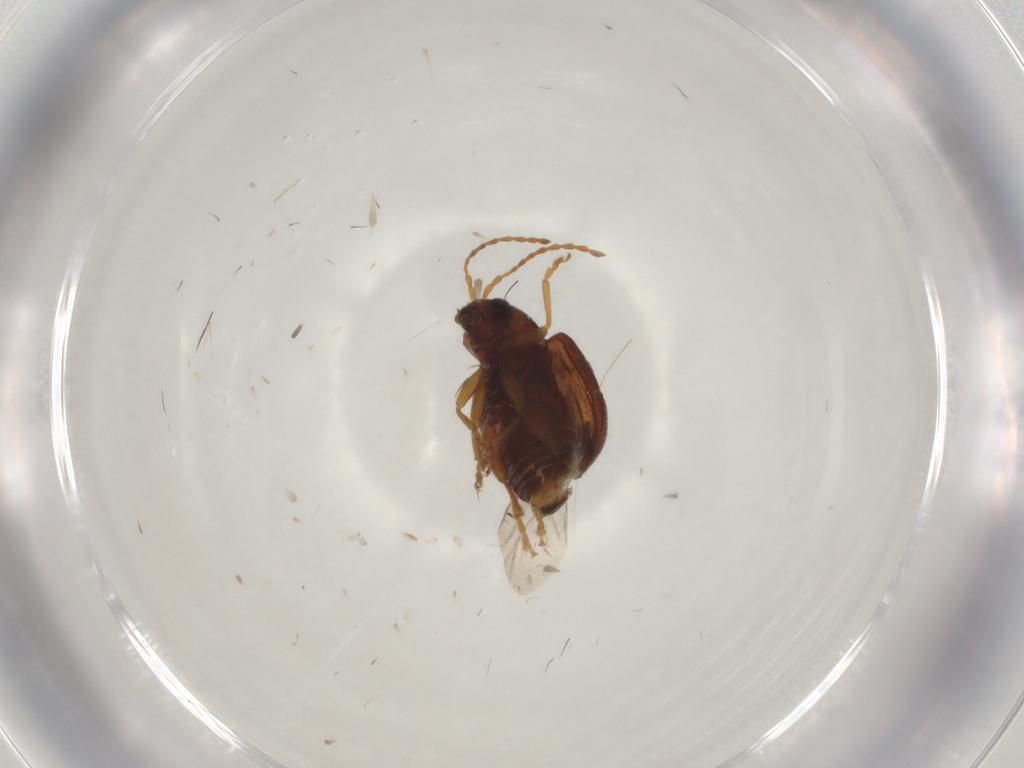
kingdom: Animalia
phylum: Arthropoda
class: Insecta
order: Coleoptera
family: Chrysomelidae
